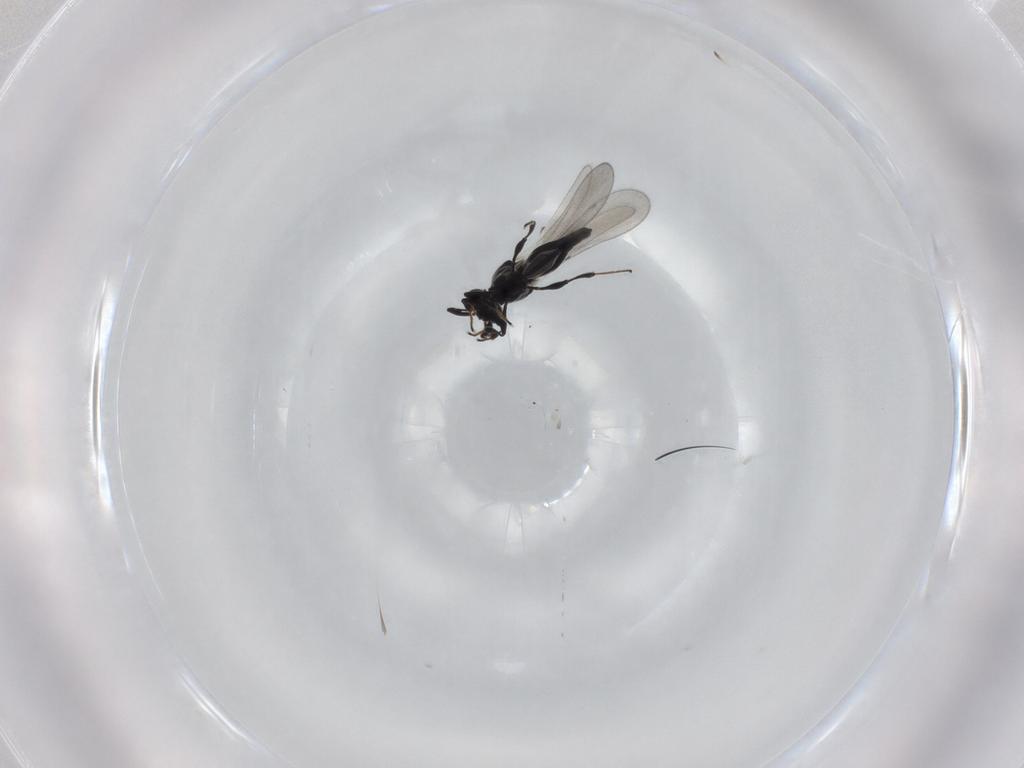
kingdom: Animalia
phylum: Arthropoda
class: Insecta
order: Hymenoptera
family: Platygastridae
